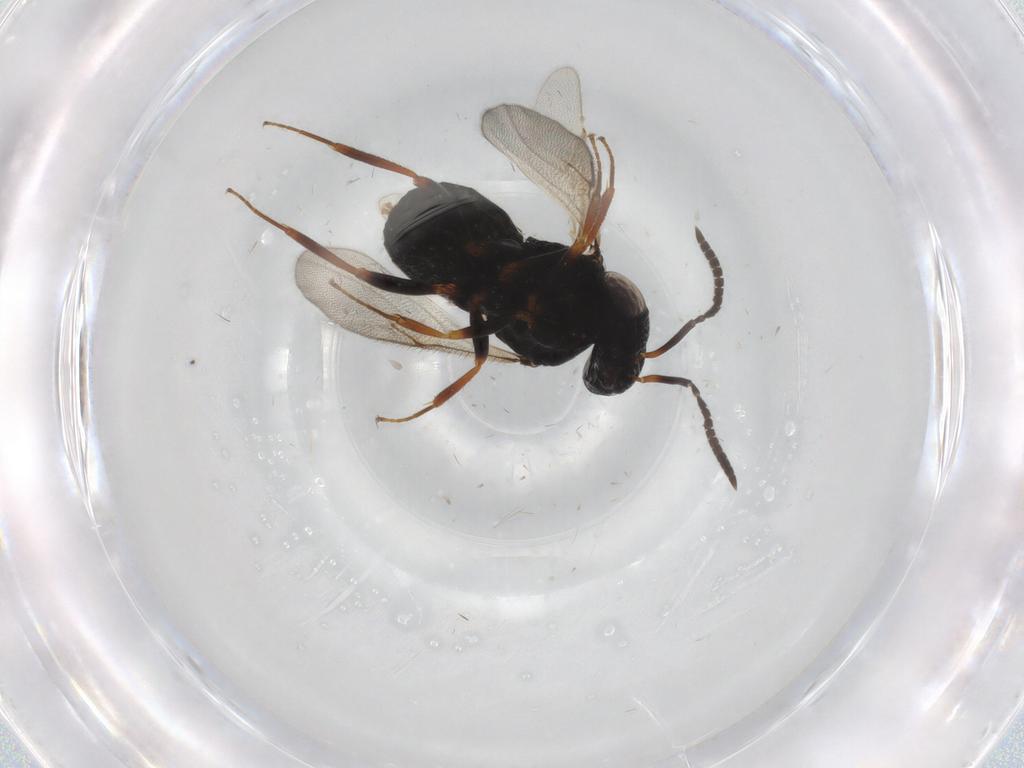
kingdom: Animalia
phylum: Arthropoda
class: Insecta
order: Hymenoptera
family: Scelionidae
